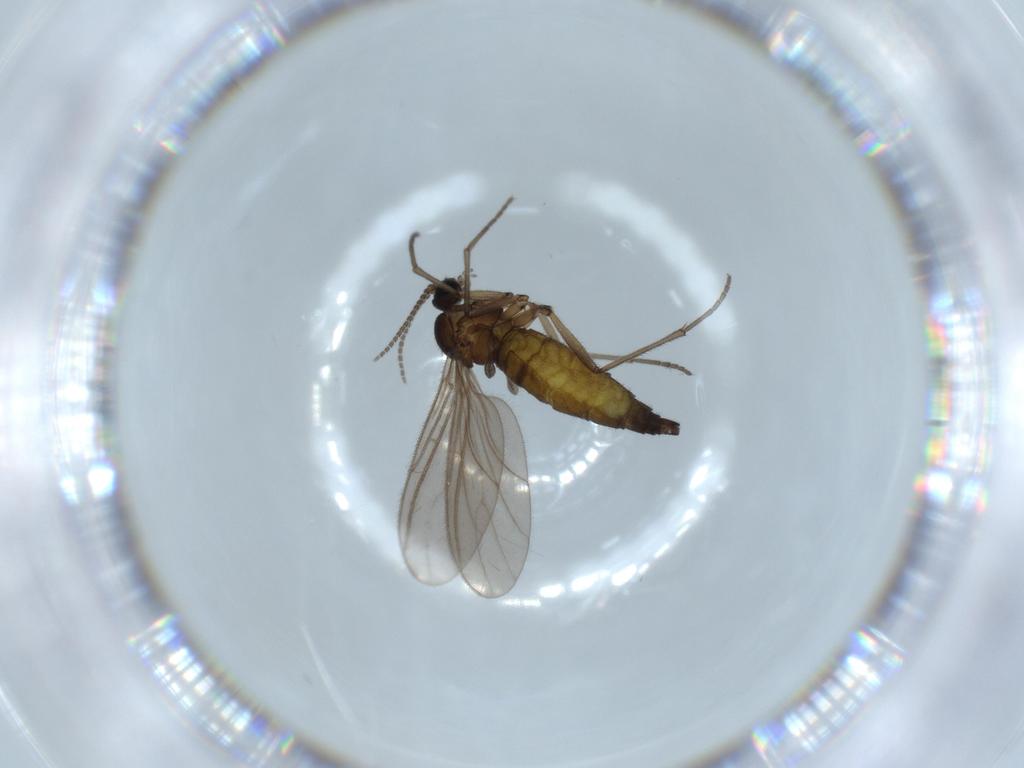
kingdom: Animalia
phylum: Arthropoda
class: Insecta
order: Diptera
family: Sciaridae
